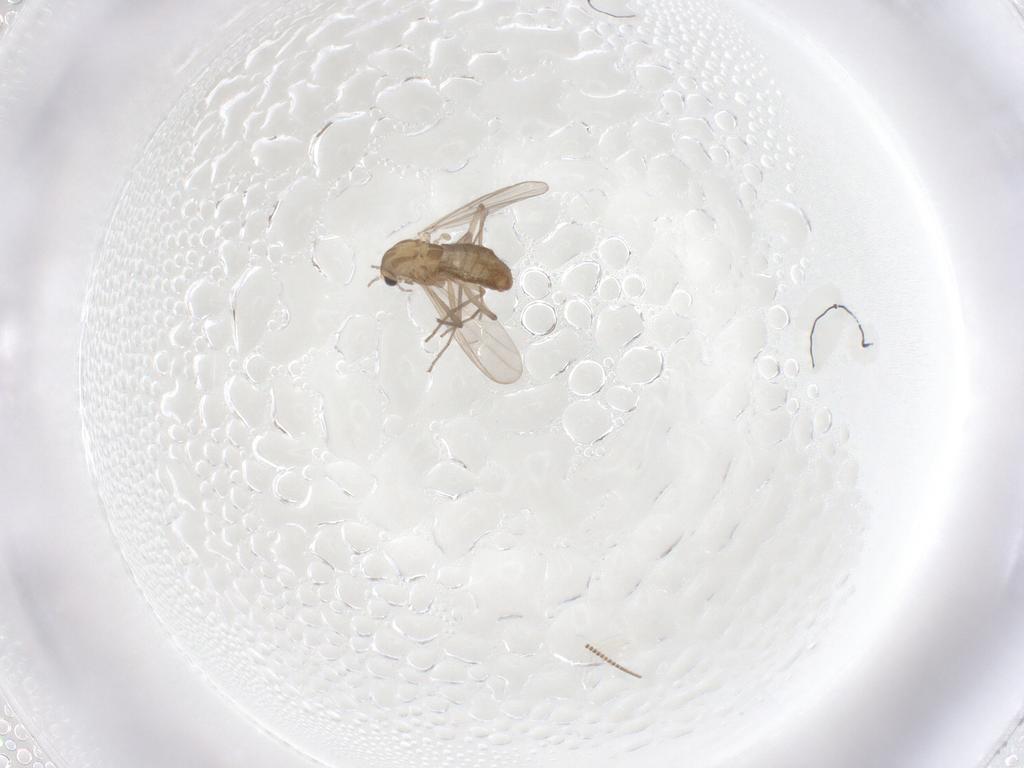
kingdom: Animalia
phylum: Arthropoda
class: Insecta
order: Diptera
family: Chironomidae
